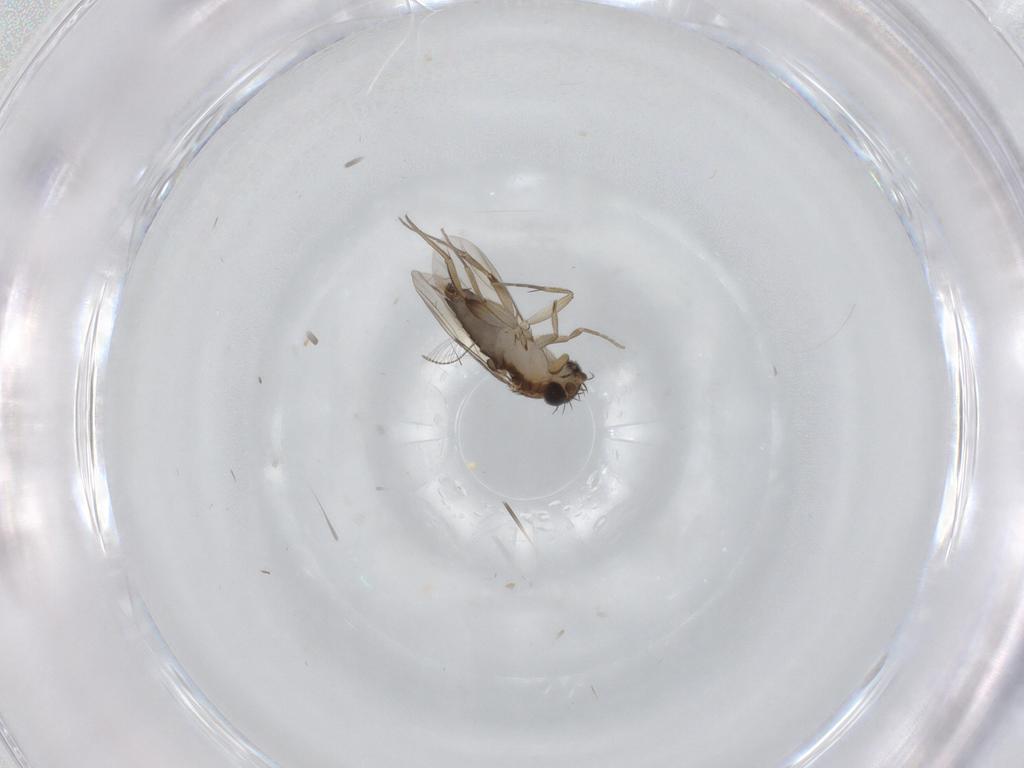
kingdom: Animalia
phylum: Arthropoda
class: Insecta
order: Diptera
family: Phoridae
